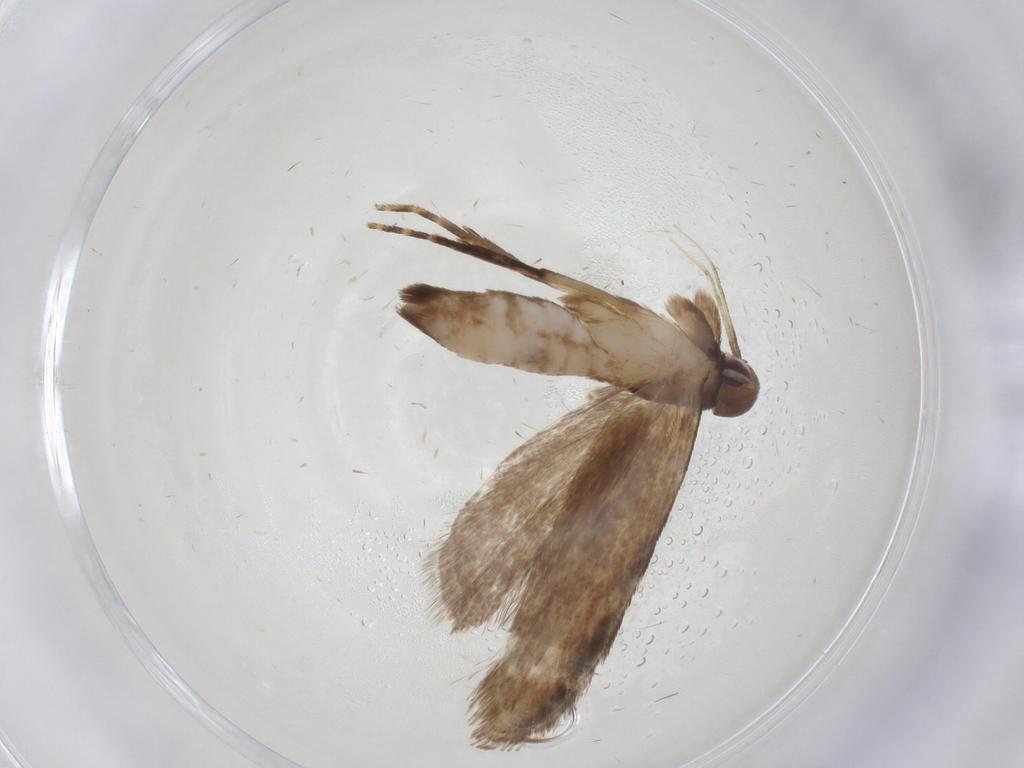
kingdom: Animalia
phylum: Arthropoda
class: Insecta
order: Lepidoptera
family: Gelechiidae
